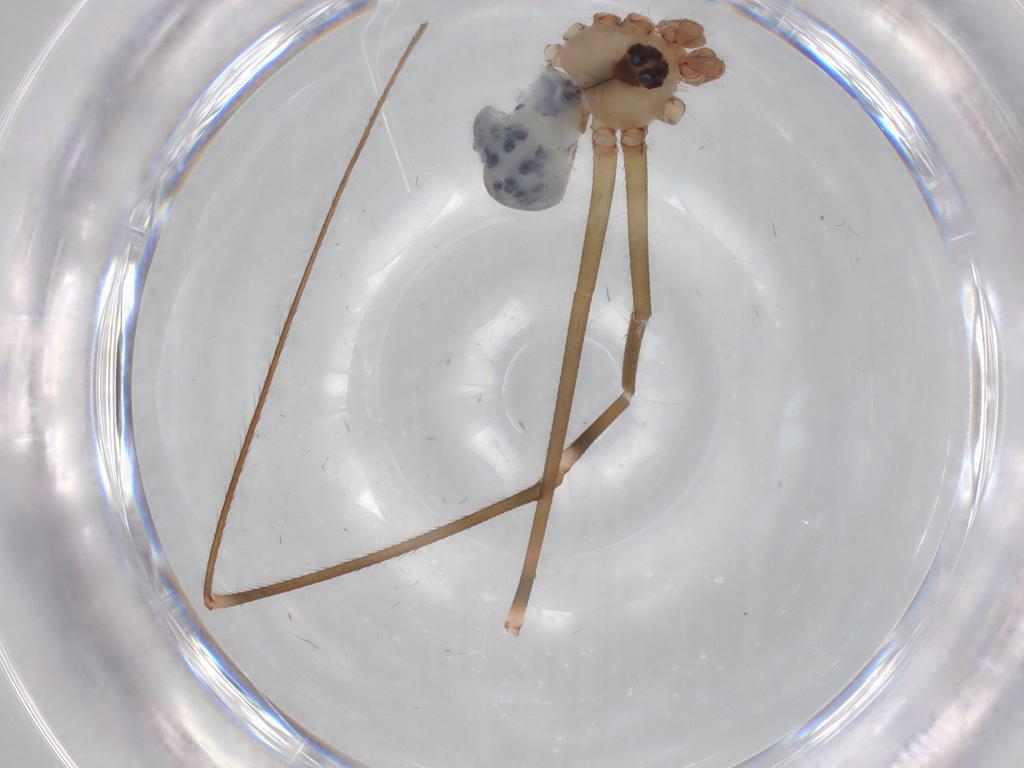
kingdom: Animalia
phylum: Arthropoda
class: Arachnida
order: Araneae
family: Pholcidae
